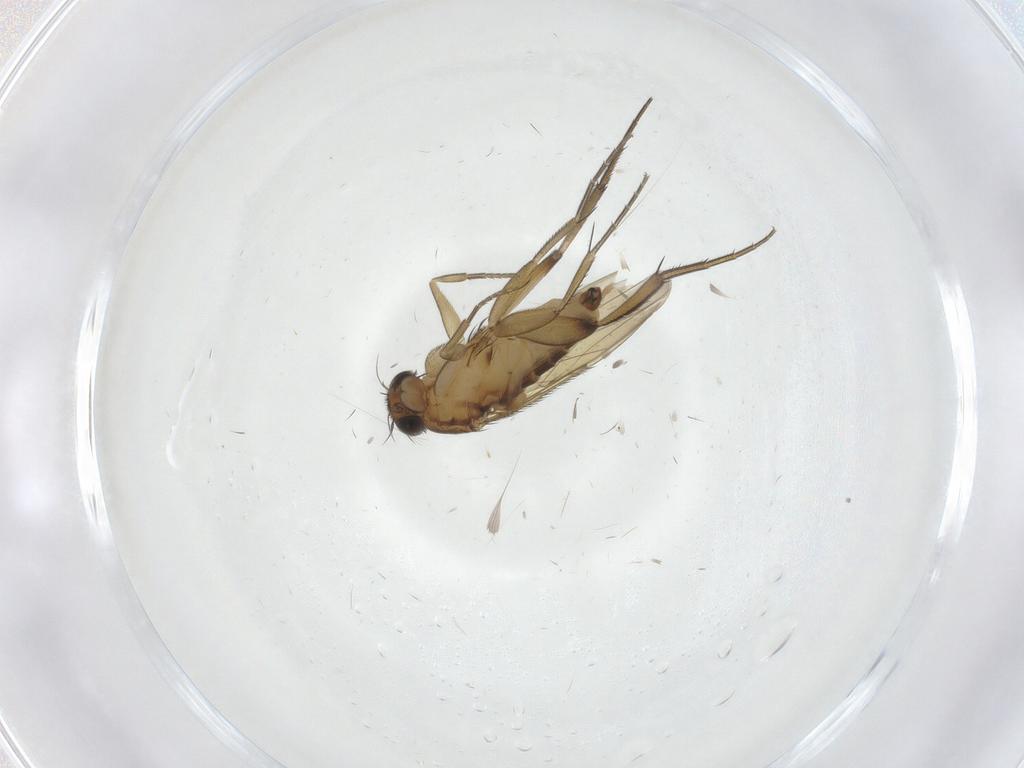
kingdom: Animalia
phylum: Arthropoda
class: Insecta
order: Diptera
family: Phoridae
